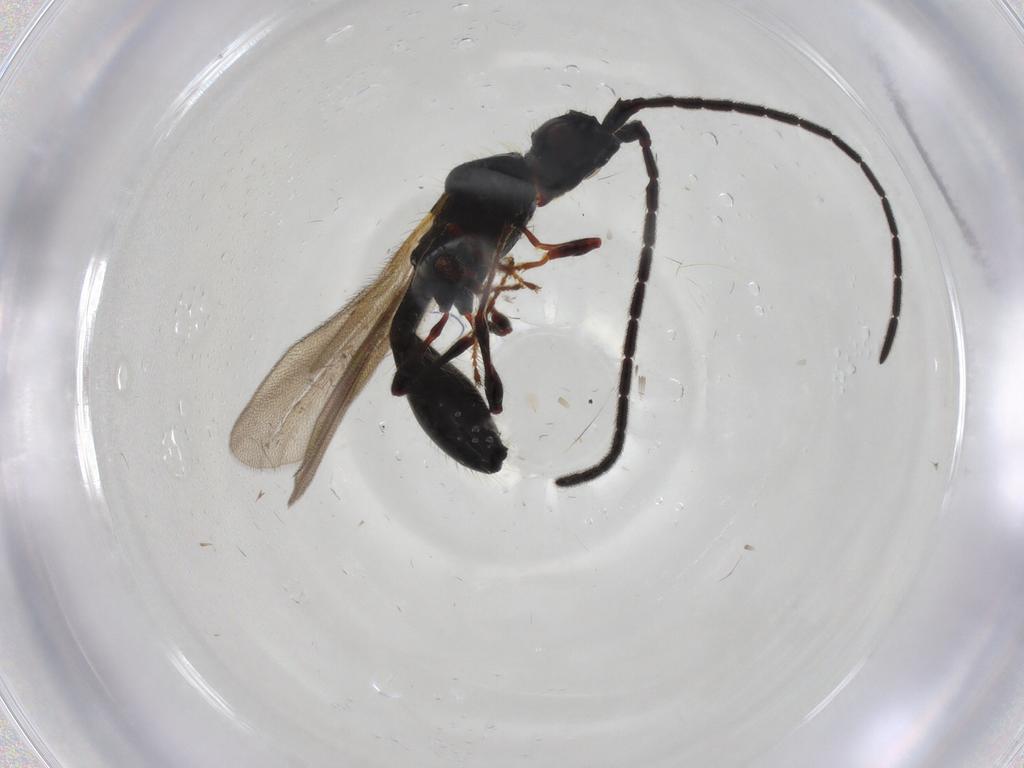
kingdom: Animalia
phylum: Arthropoda
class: Insecta
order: Hymenoptera
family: Diapriidae
